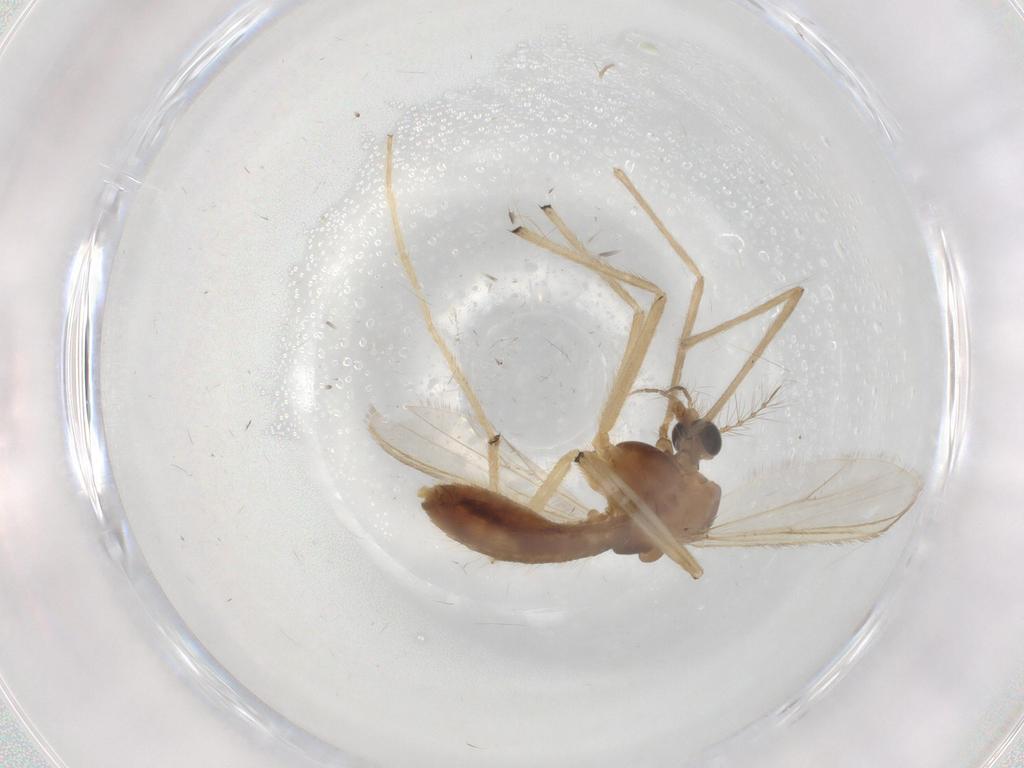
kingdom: Animalia
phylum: Arthropoda
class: Insecta
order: Diptera
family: Chironomidae
